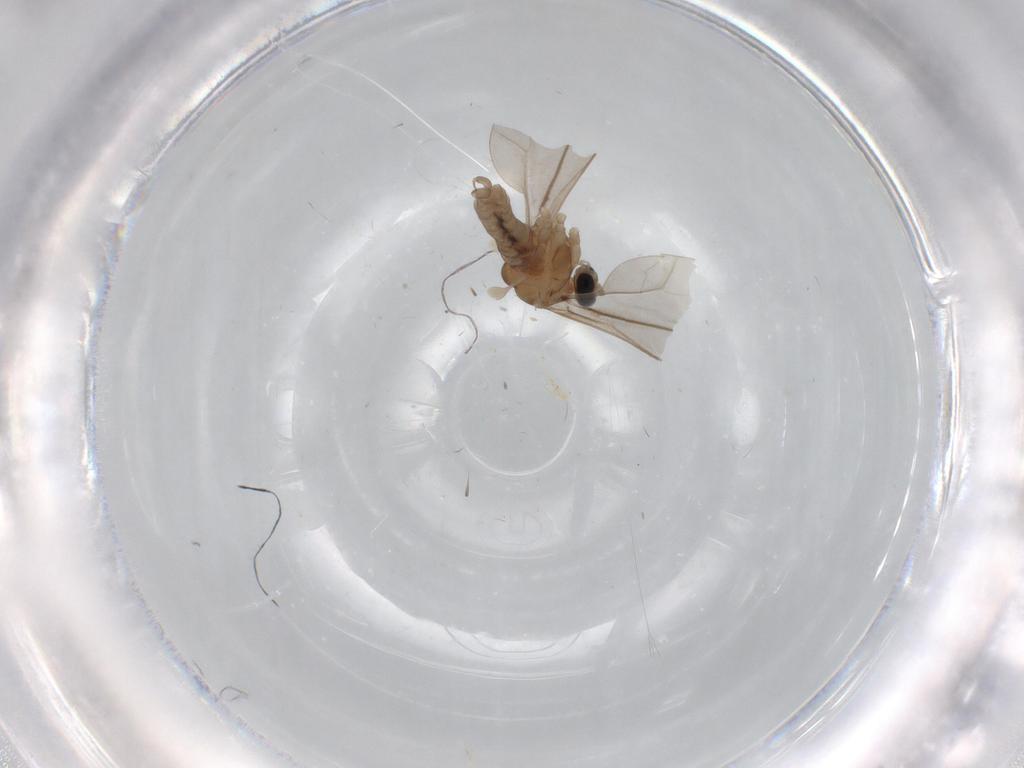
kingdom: Animalia
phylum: Arthropoda
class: Insecta
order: Diptera
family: Cecidomyiidae
